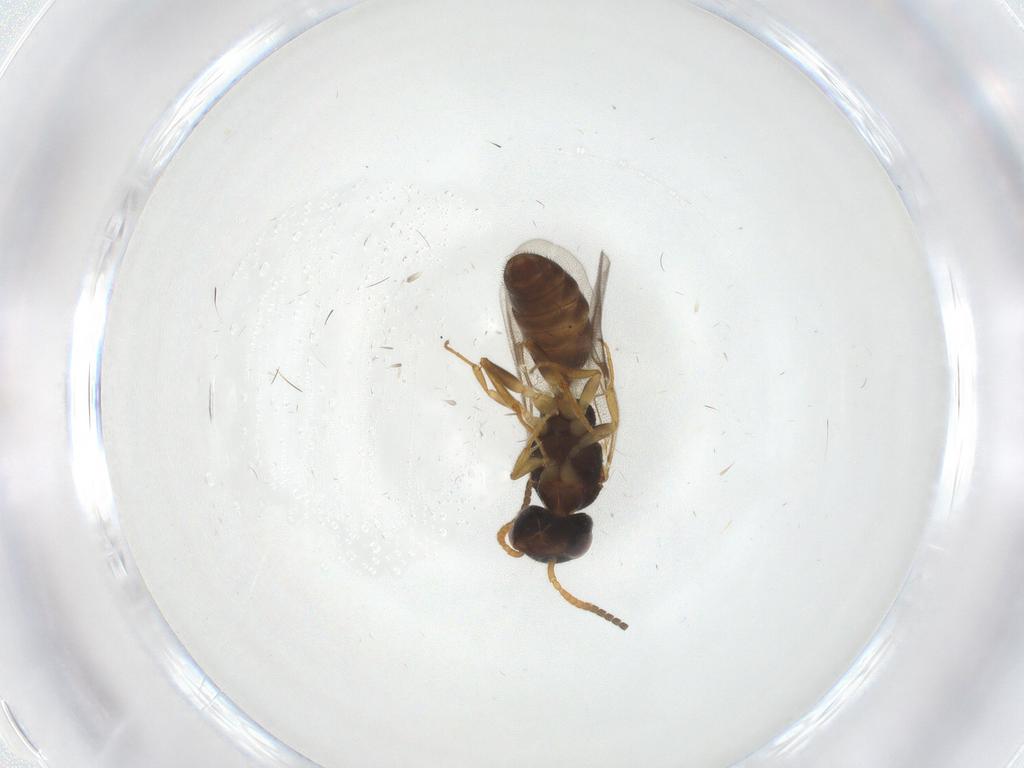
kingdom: Animalia
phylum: Arthropoda
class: Insecta
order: Hymenoptera
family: Bethylidae
